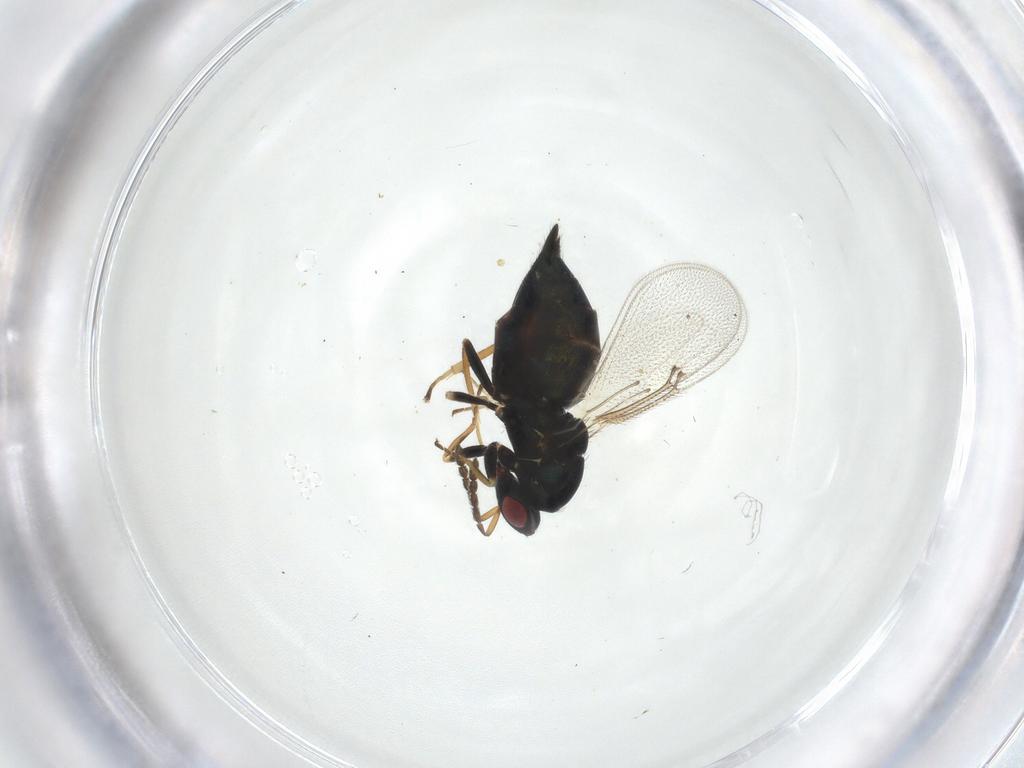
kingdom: Animalia
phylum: Arthropoda
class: Insecta
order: Hymenoptera
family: Eulophidae
